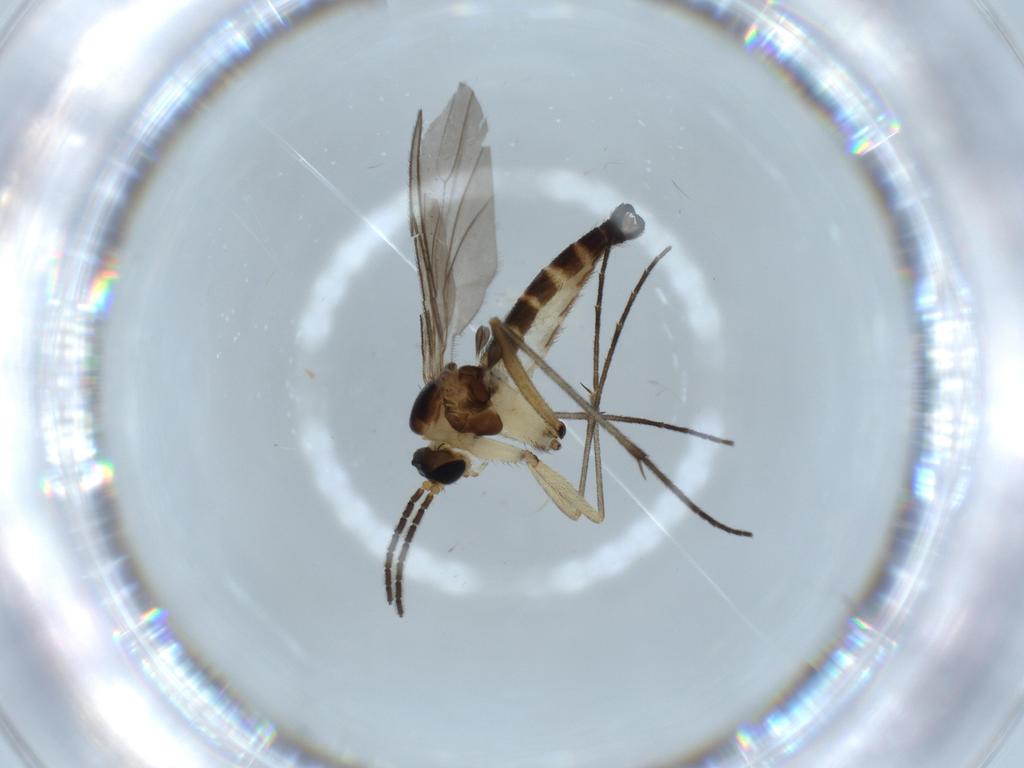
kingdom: Animalia
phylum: Arthropoda
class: Insecta
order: Diptera
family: Sciaridae
